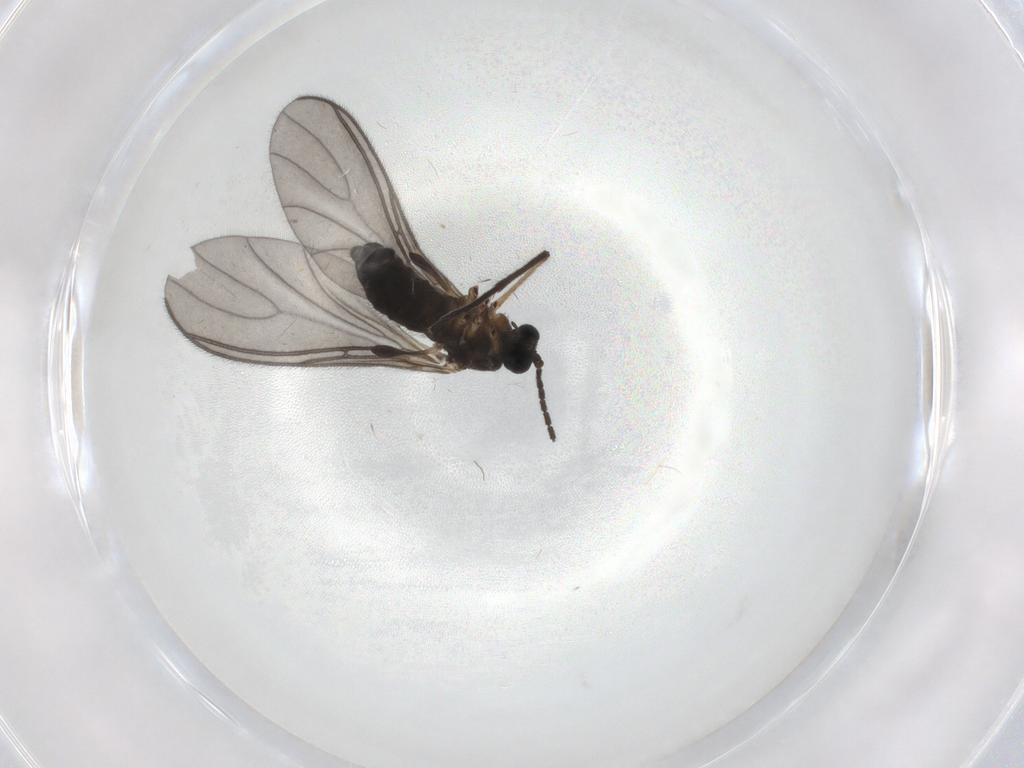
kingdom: Animalia
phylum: Arthropoda
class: Insecta
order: Diptera
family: Sciaridae
